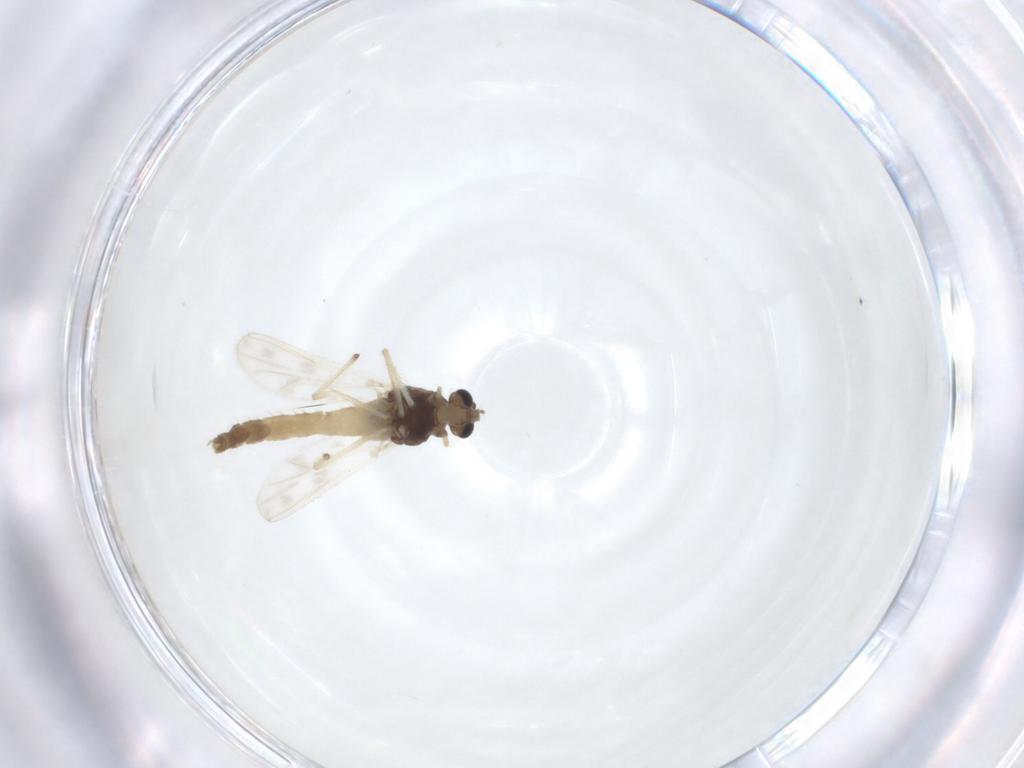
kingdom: Animalia
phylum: Arthropoda
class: Insecta
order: Diptera
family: Chironomidae
